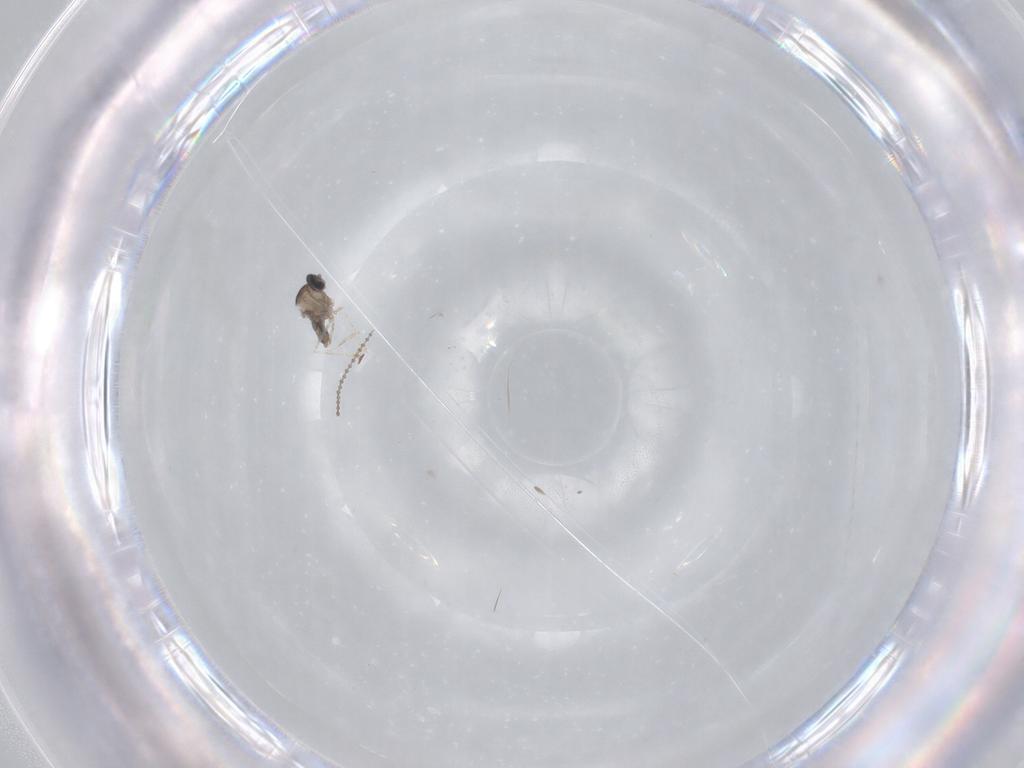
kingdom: Animalia
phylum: Arthropoda
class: Insecta
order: Diptera
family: Cecidomyiidae
